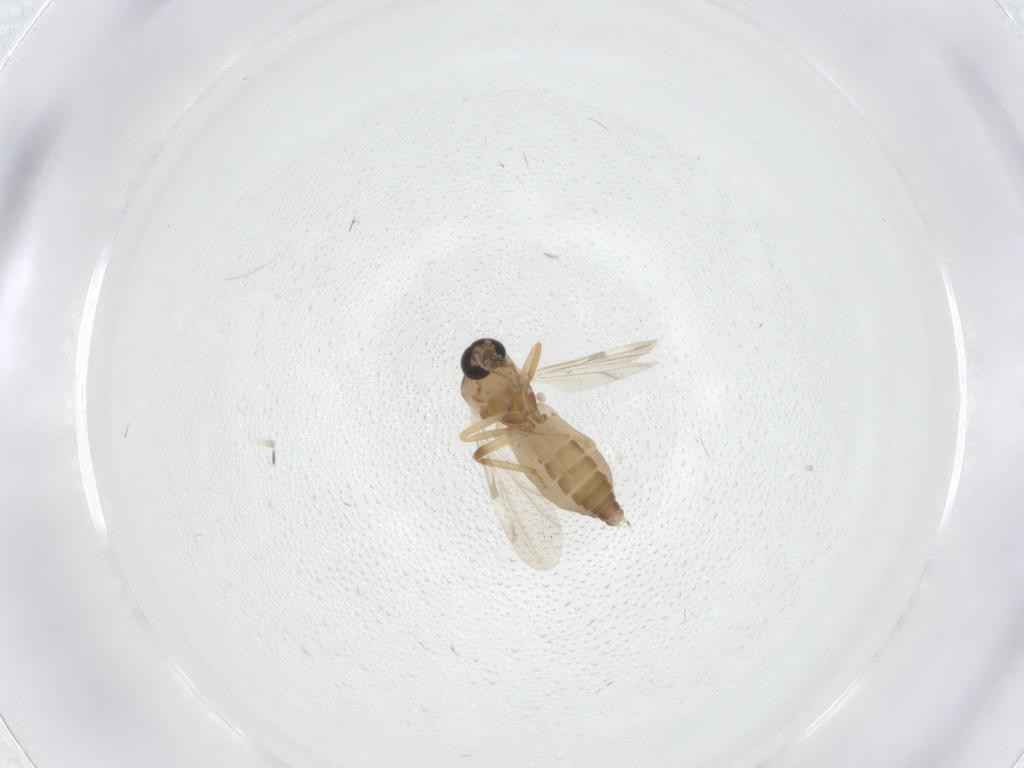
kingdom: Animalia
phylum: Arthropoda
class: Insecta
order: Diptera
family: Ceratopogonidae
